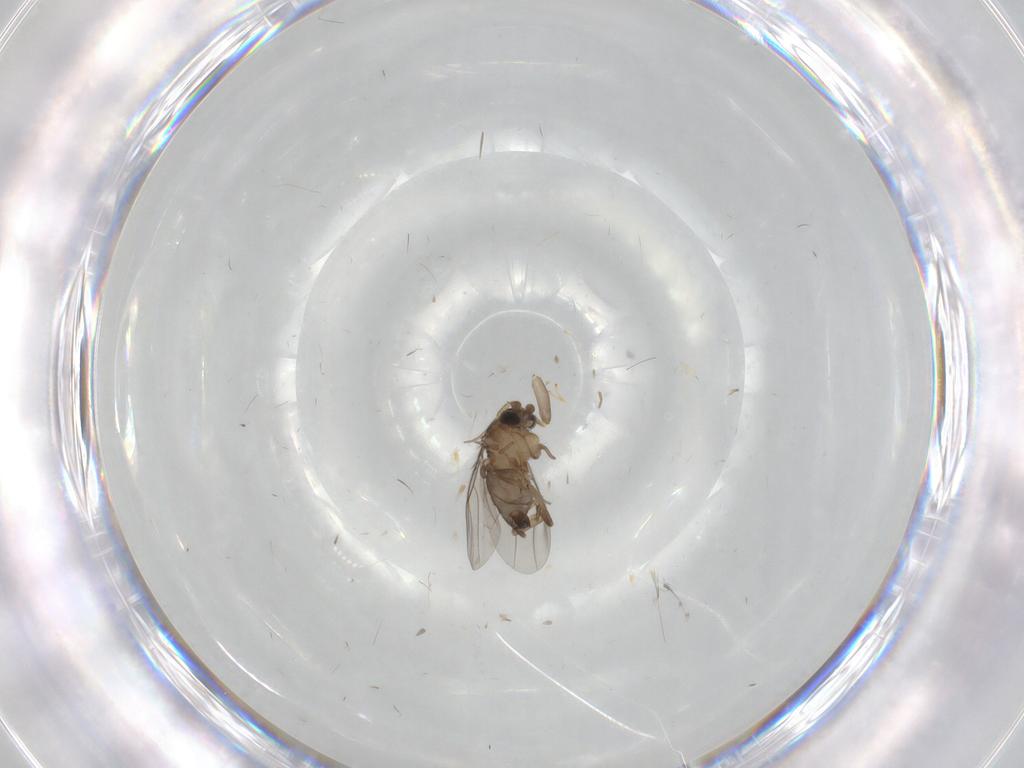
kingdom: Animalia
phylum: Arthropoda
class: Insecta
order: Diptera
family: Phoridae
